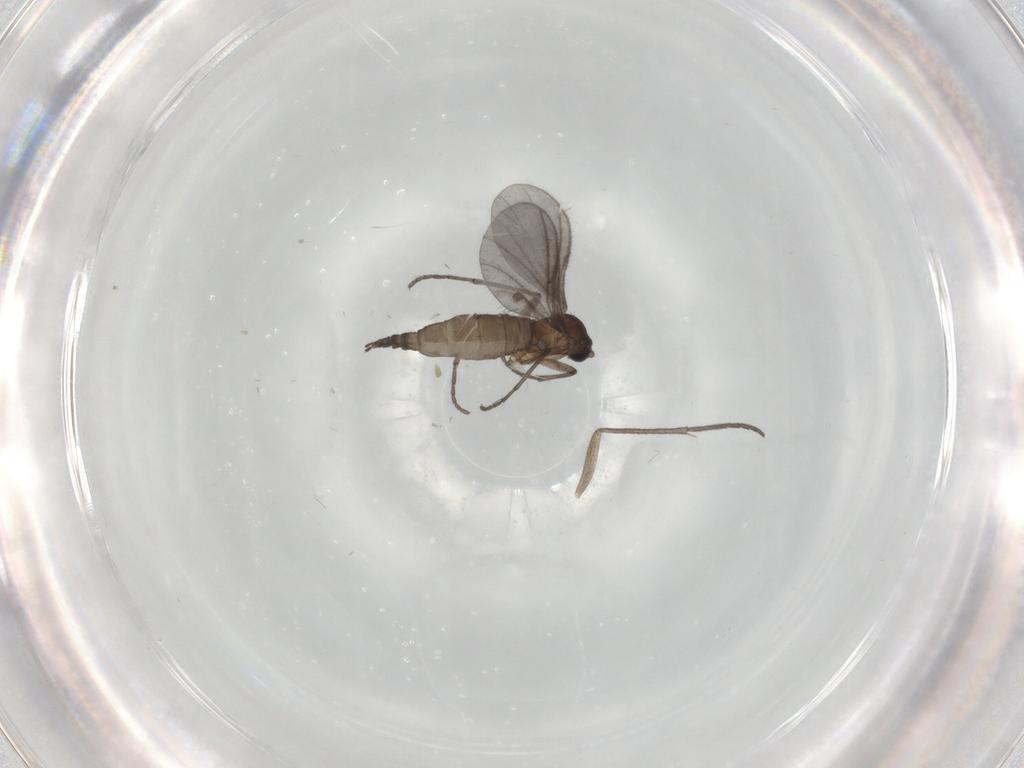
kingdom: Animalia
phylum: Arthropoda
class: Insecta
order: Diptera
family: Sciaridae
